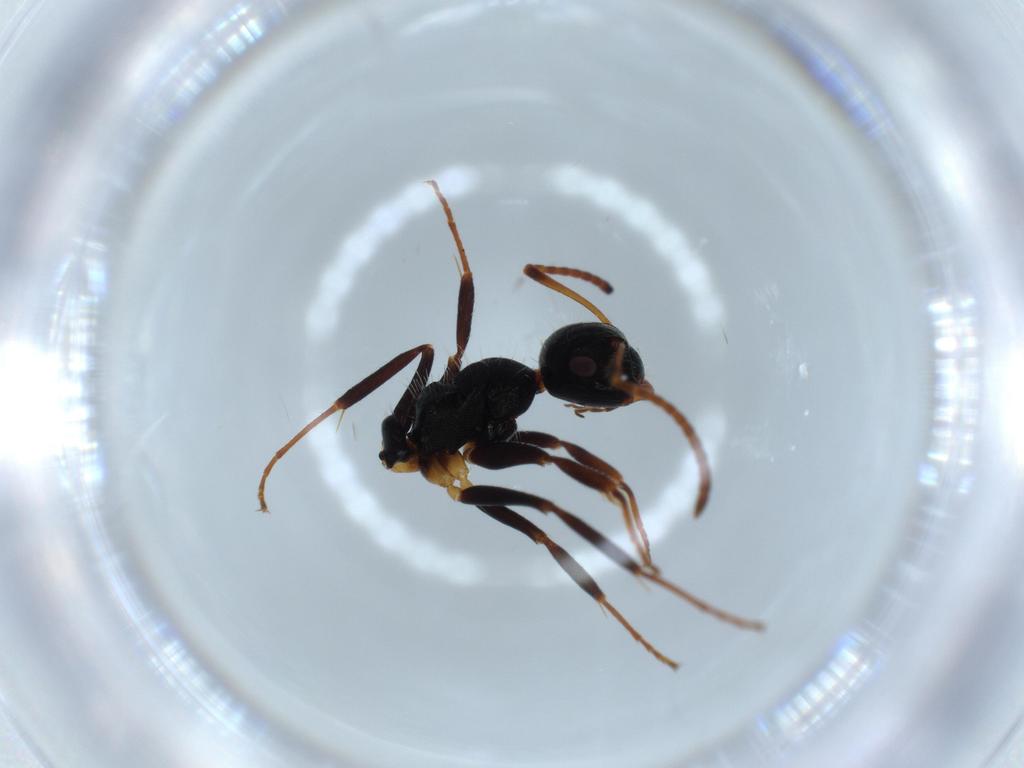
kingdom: Animalia
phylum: Arthropoda
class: Insecta
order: Hymenoptera
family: Formicidae
